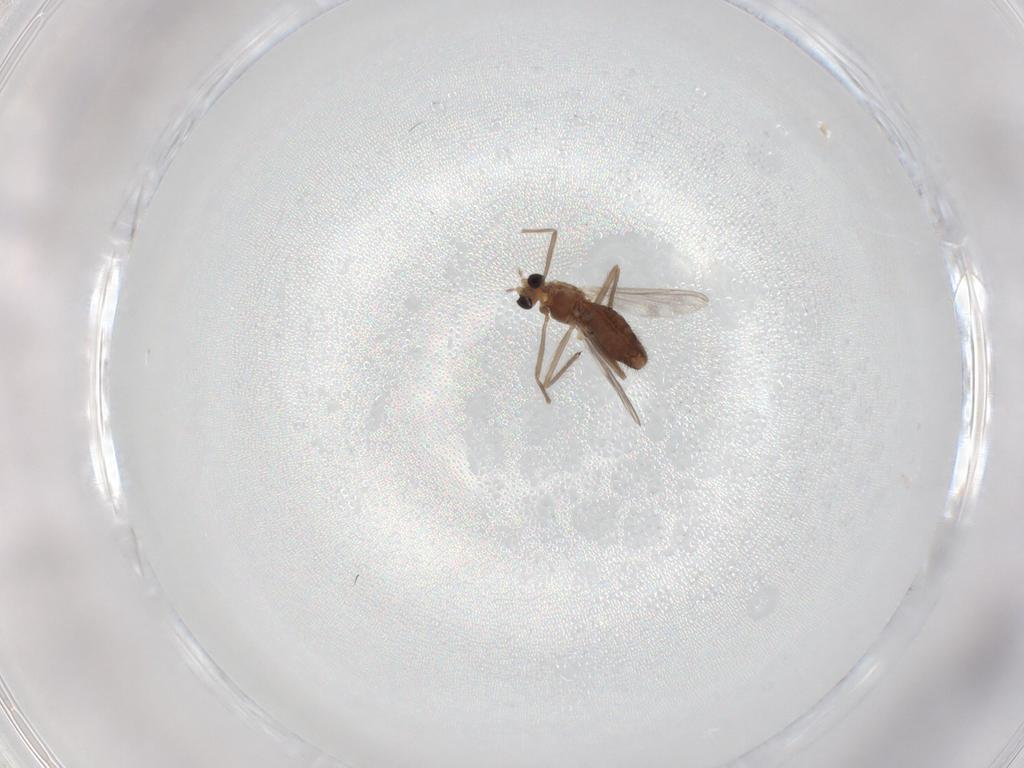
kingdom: Animalia
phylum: Arthropoda
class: Insecta
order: Diptera
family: Chironomidae
